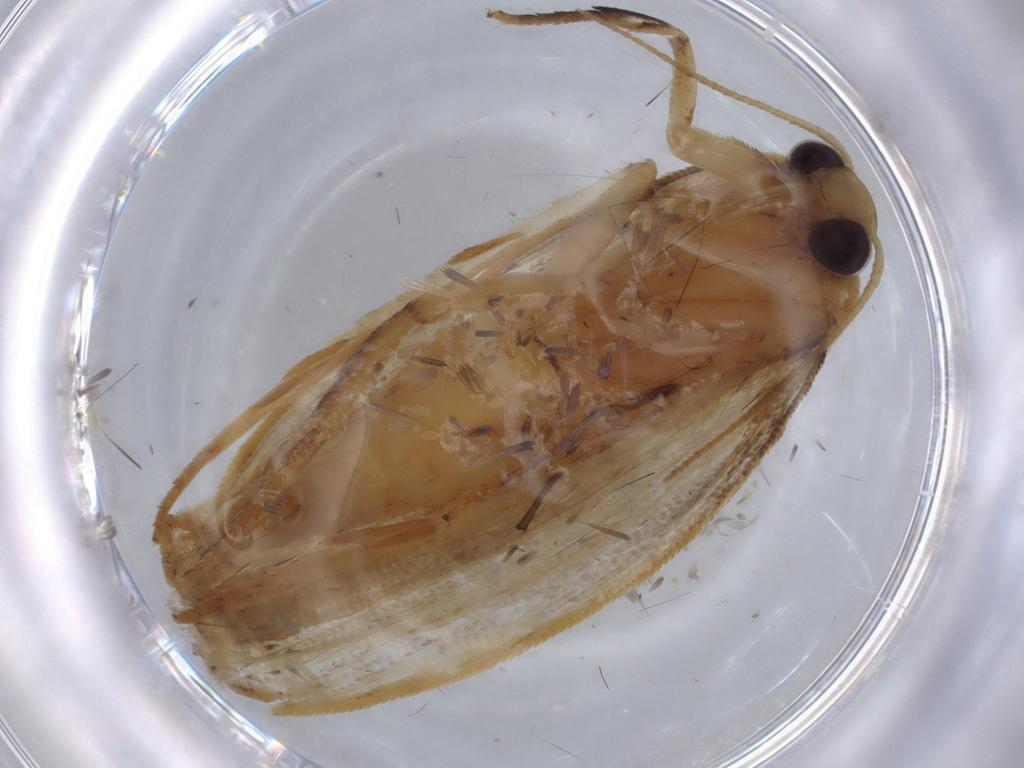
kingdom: Animalia
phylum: Arthropoda
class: Insecta
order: Lepidoptera
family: Depressariidae
